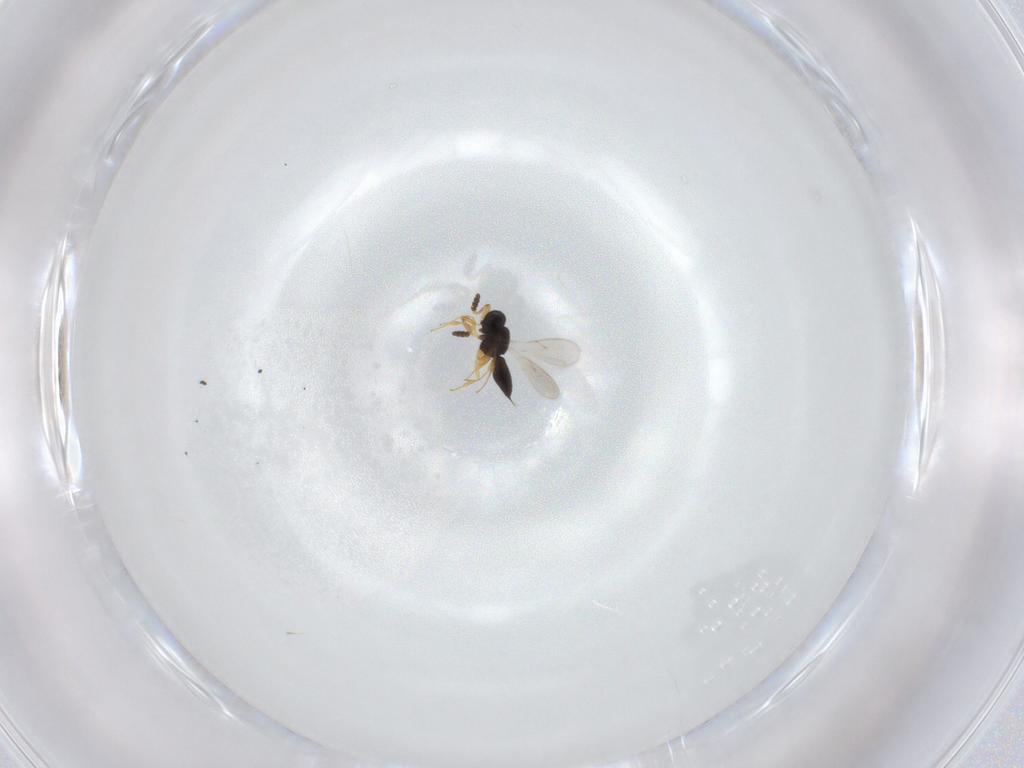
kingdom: Animalia
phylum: Arthropoda
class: Insecta
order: Hymenoptera
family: Scelionidae
